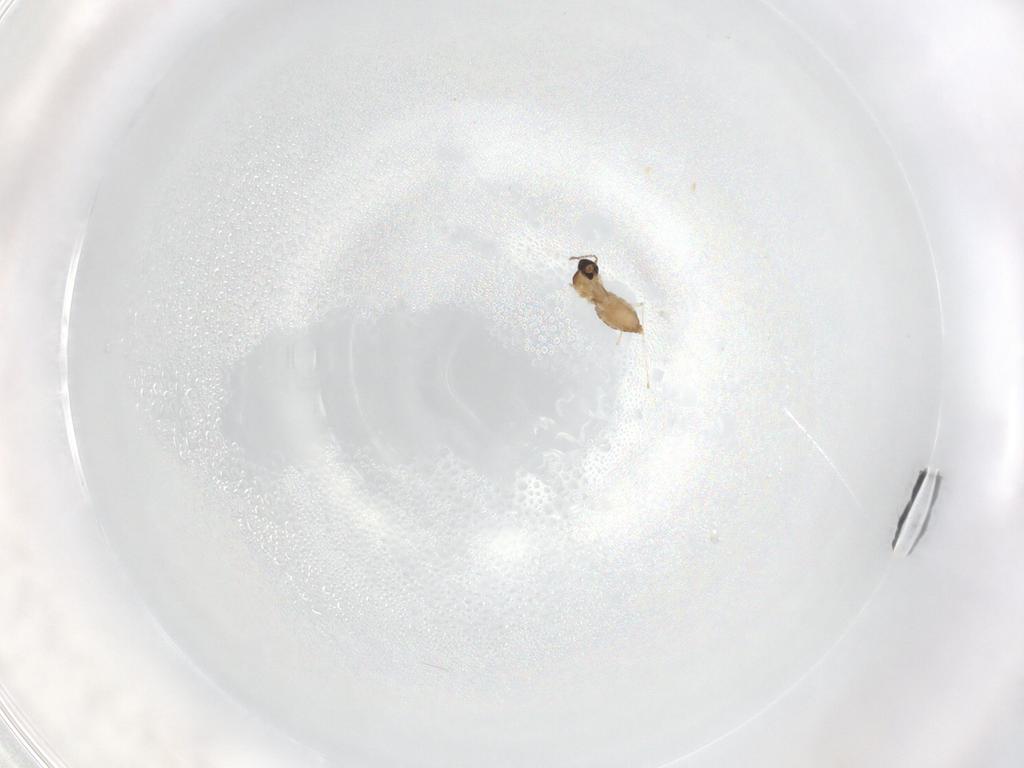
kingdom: Animalia
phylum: Arthropoda
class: Insecta
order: Diptera
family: Cecidomyiidae
